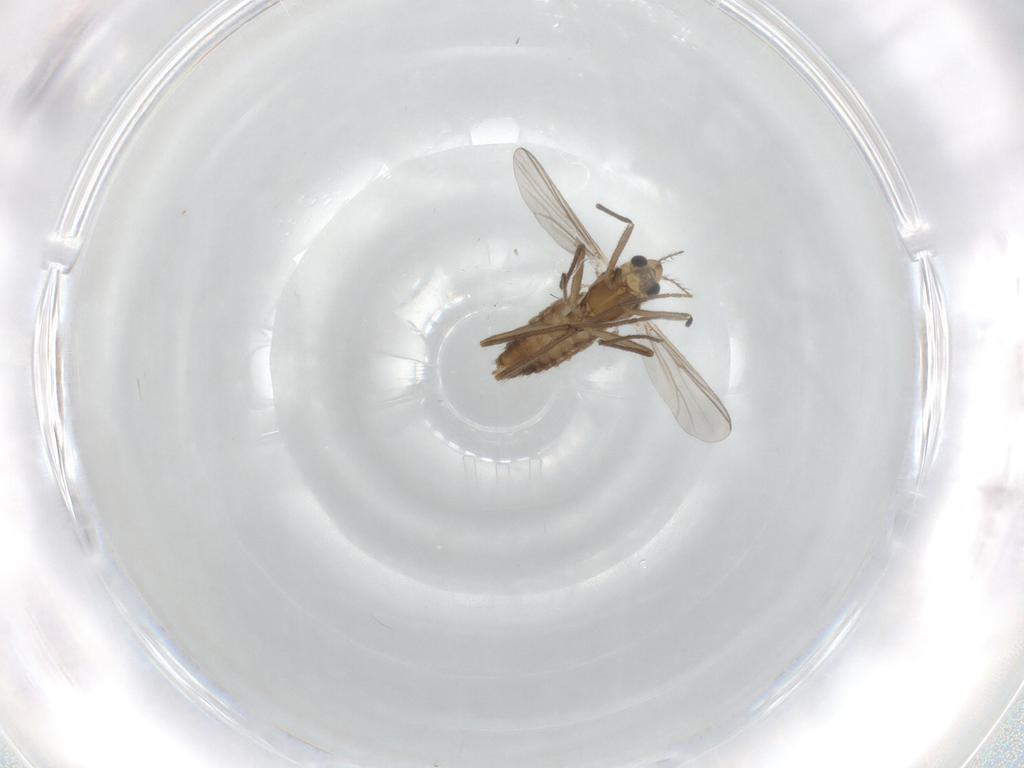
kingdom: Animalia
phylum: Arthropoda
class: Insecta
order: Diptera
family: Chironomidae
